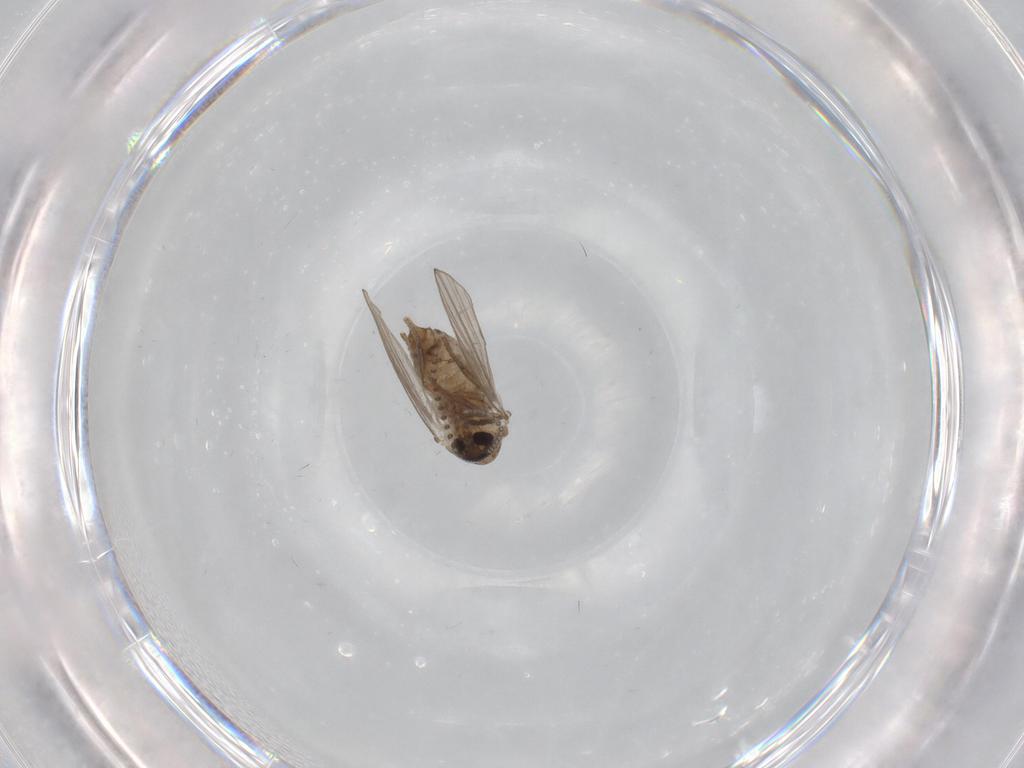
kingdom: Animalia
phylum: Arthropoda
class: Insecta
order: Diptera
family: Psychodidae
